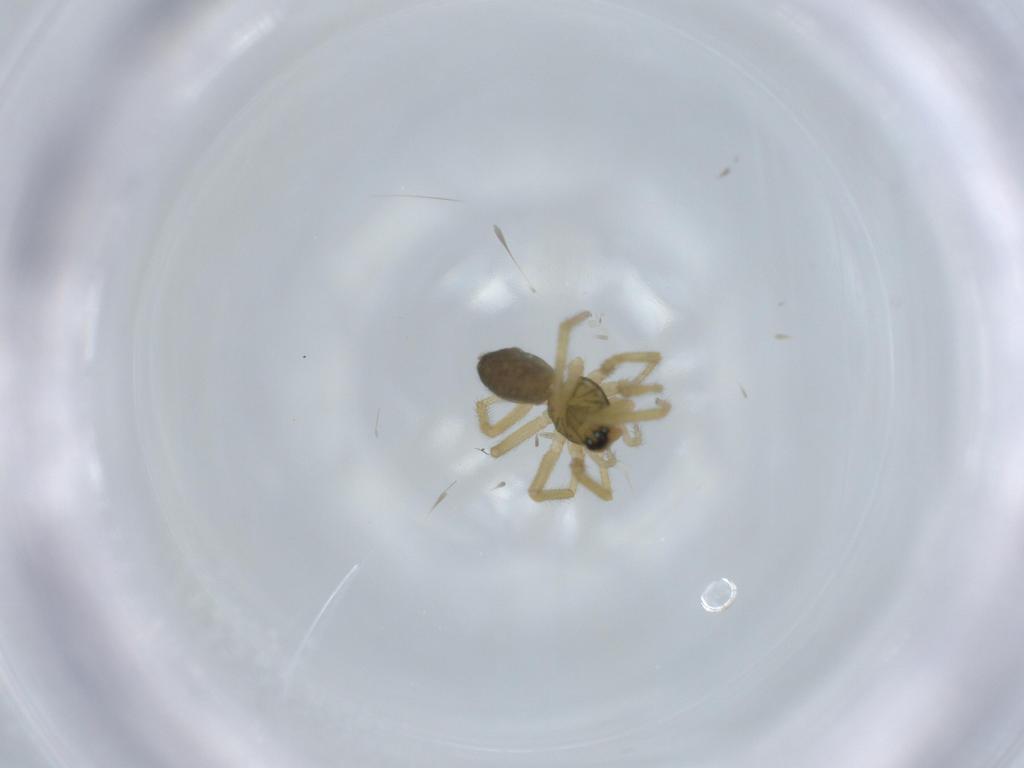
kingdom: Animalia
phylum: Arthropoda
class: Arachnida
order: Araneae
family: Linyphiidae
